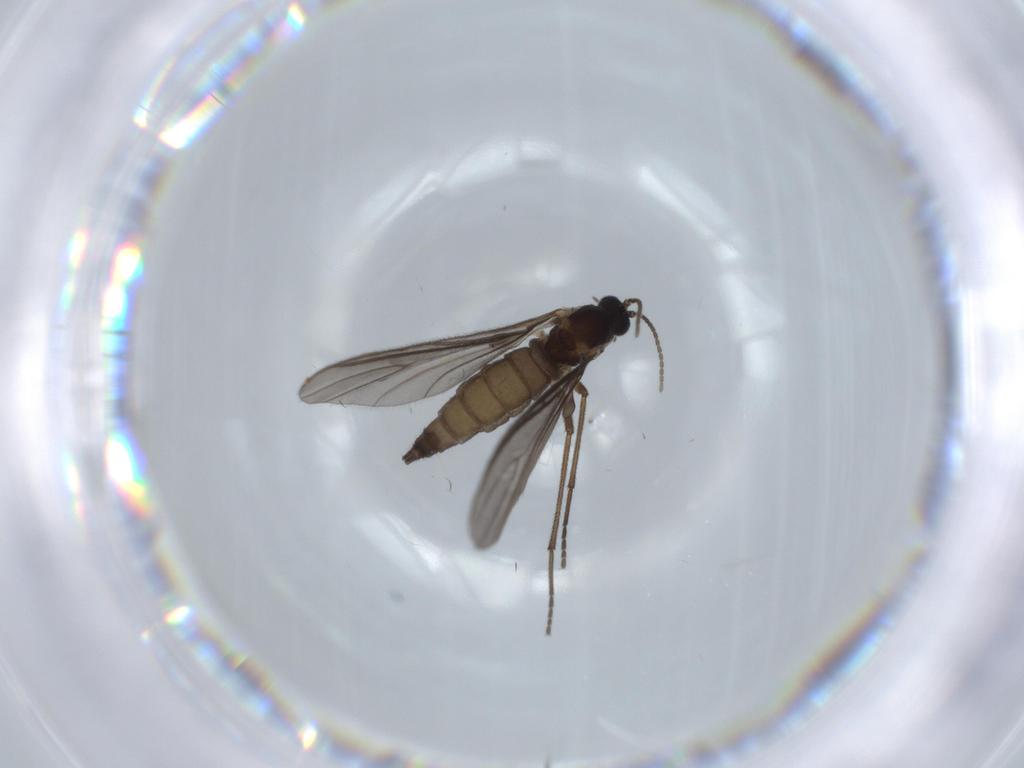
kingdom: Animalia
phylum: Arthropoda
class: Insecta
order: Diptera
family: Sciaridae
